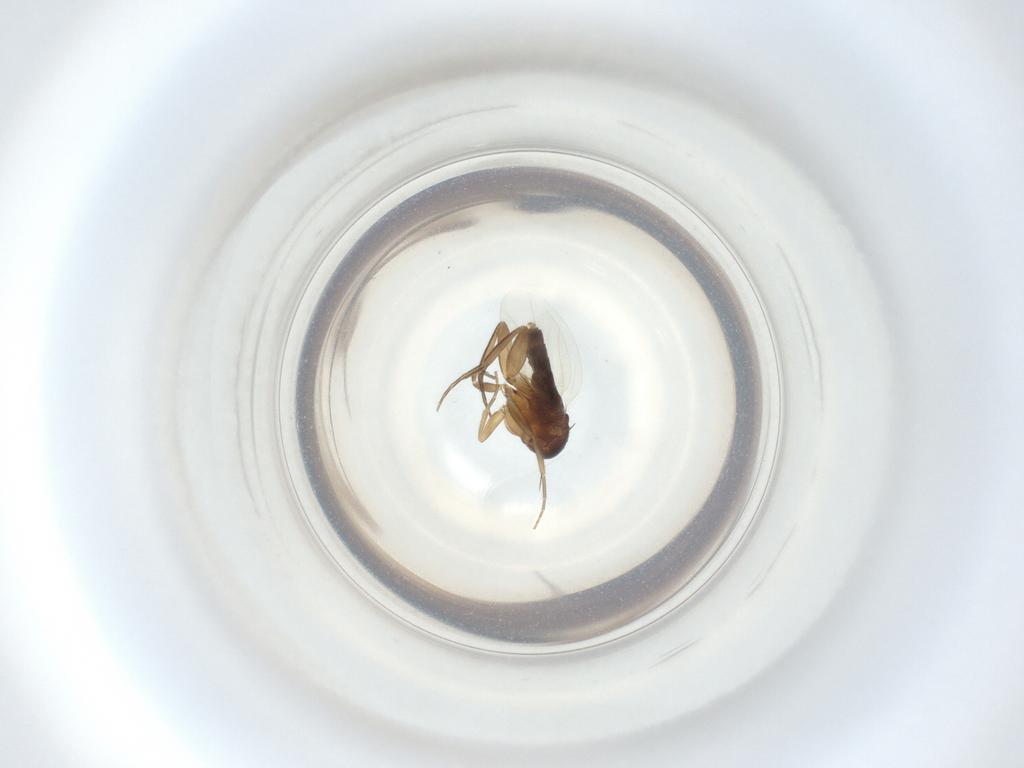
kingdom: Animalia
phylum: Arthropoda
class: Insecta
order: Diptera
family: Phoridae
